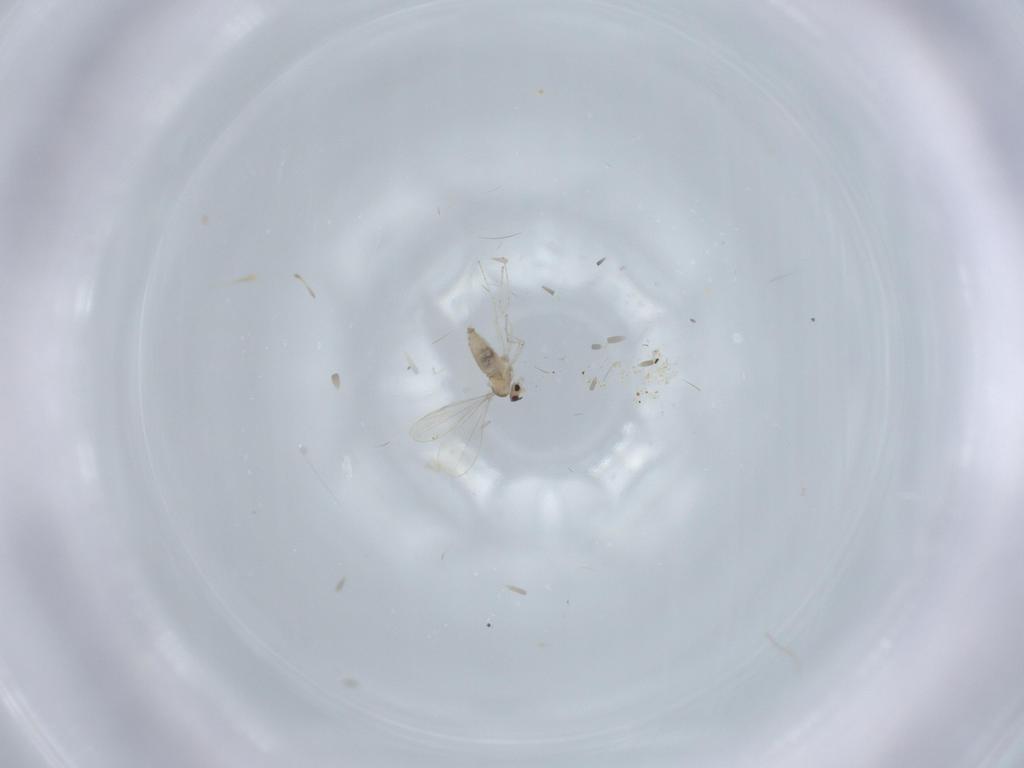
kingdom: Animalia
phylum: Arthropoda
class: Insecta
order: Diptera
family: Cecidomyiidae
